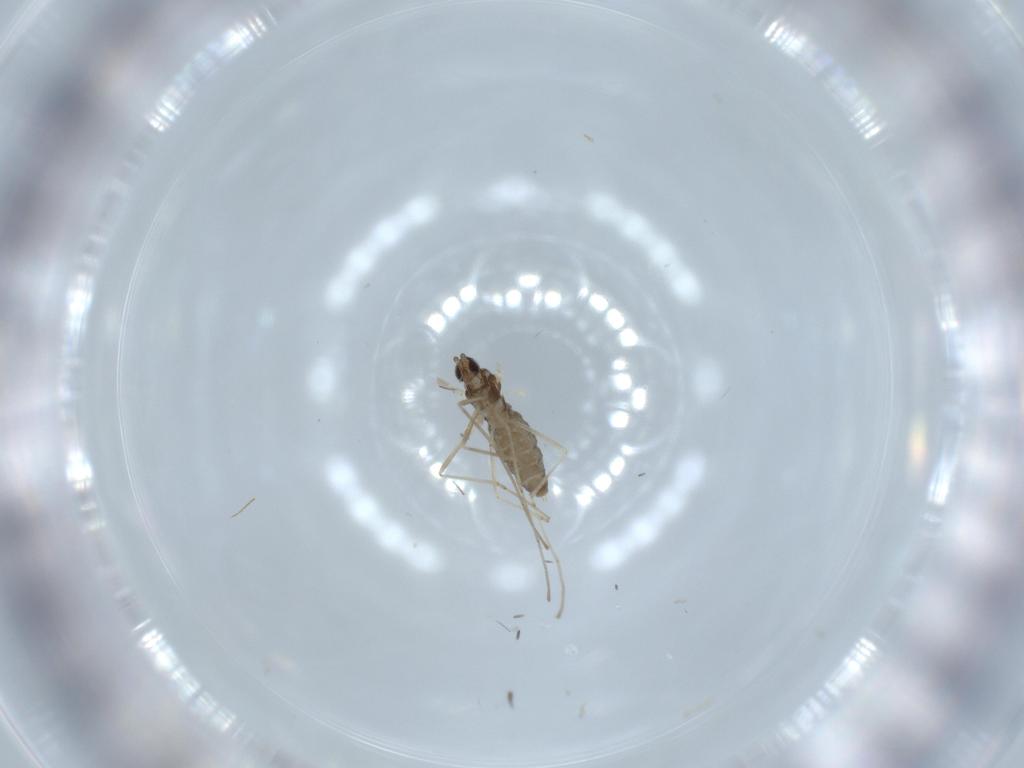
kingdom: Animalia
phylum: Arthropoda
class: Insecta
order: Diptera
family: Cecidomyiidae
